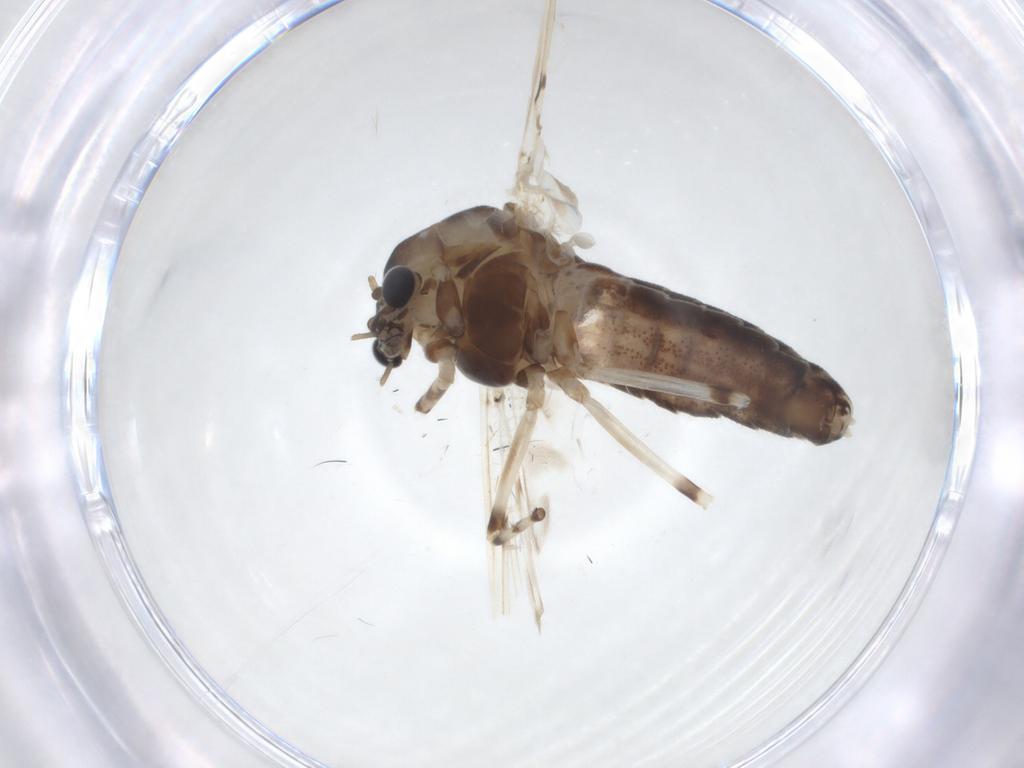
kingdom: Animalia
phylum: Arthropoda
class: Insecta
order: Diptera
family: Chironomidae
